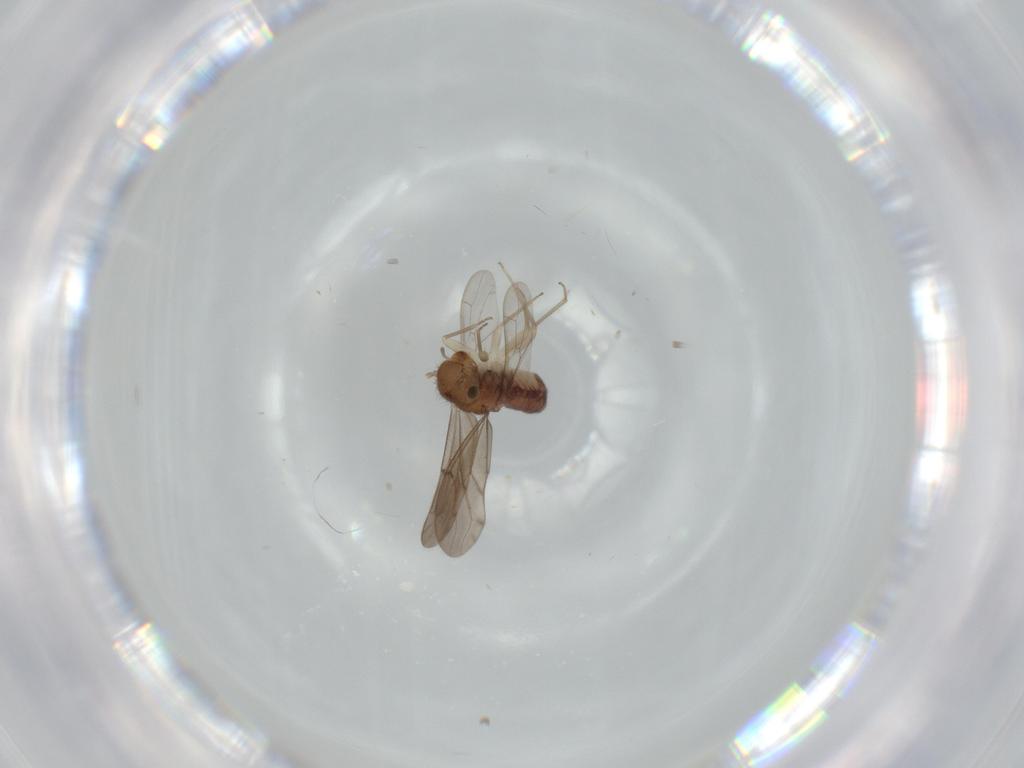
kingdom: Animalia
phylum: Arthropoda
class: Insecta
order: Psocodea
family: Ectopsocidae
